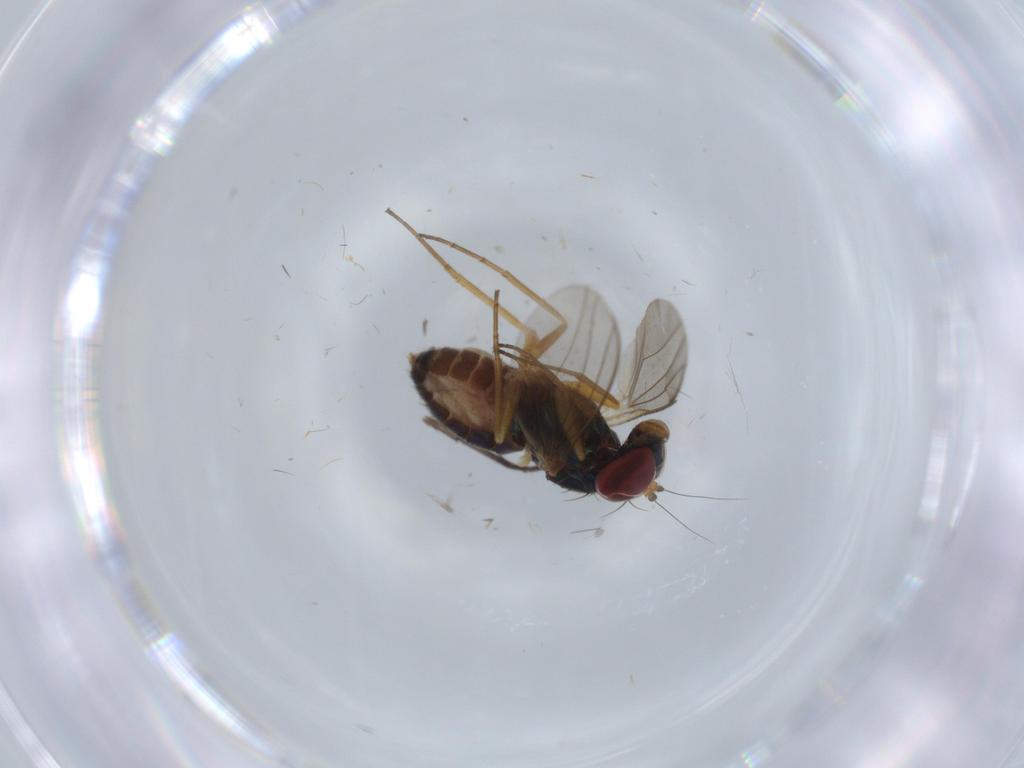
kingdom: Animalia
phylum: Arthropoda
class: Insecta
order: Diptera
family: Dolichopodidae
